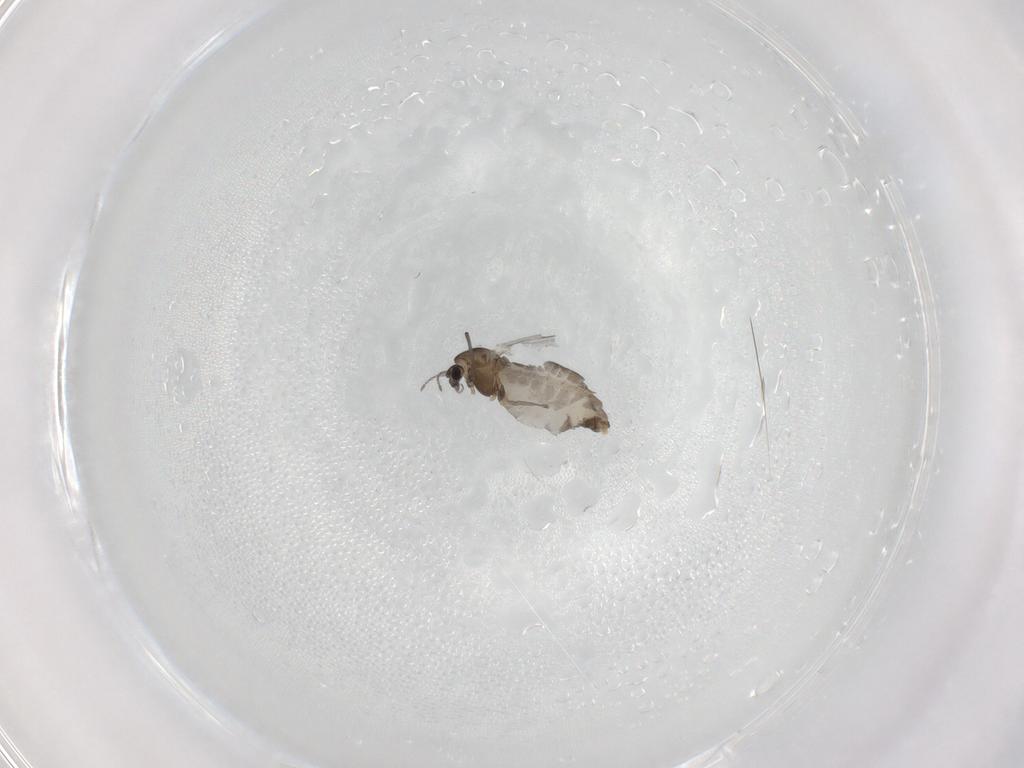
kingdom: Animalia
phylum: Arthropoda
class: Insecta
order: Diptera
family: Chironomidae
